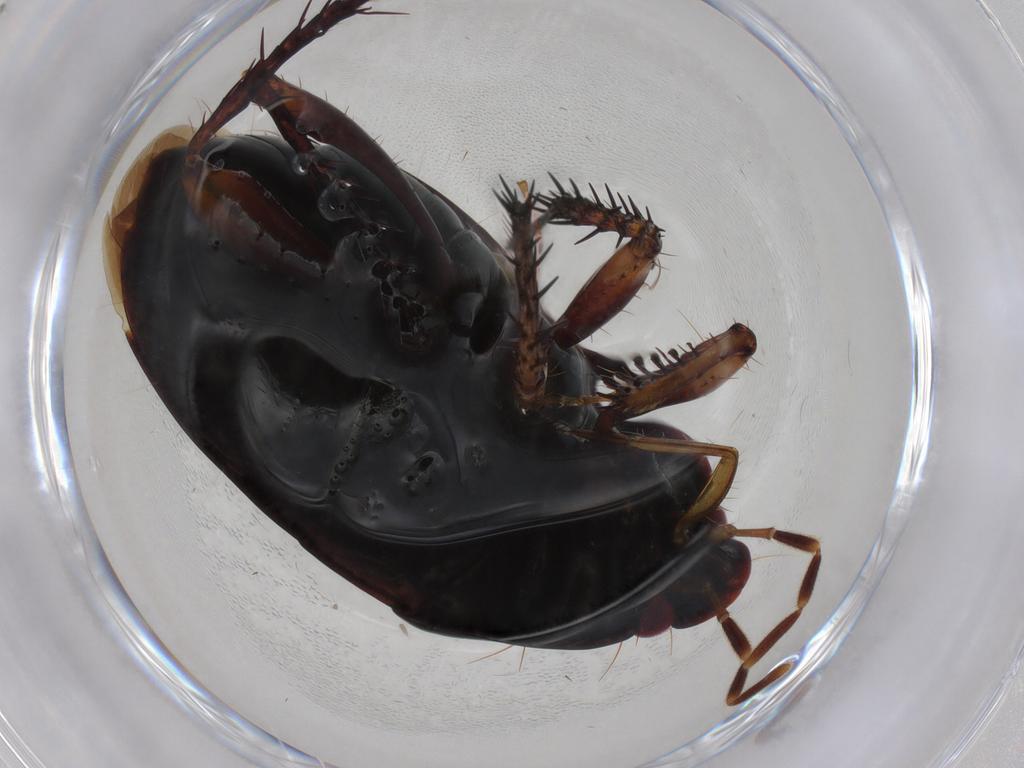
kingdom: Animalia
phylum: Arthropoda
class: Insecta
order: Hemiptera
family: Cydnidae
